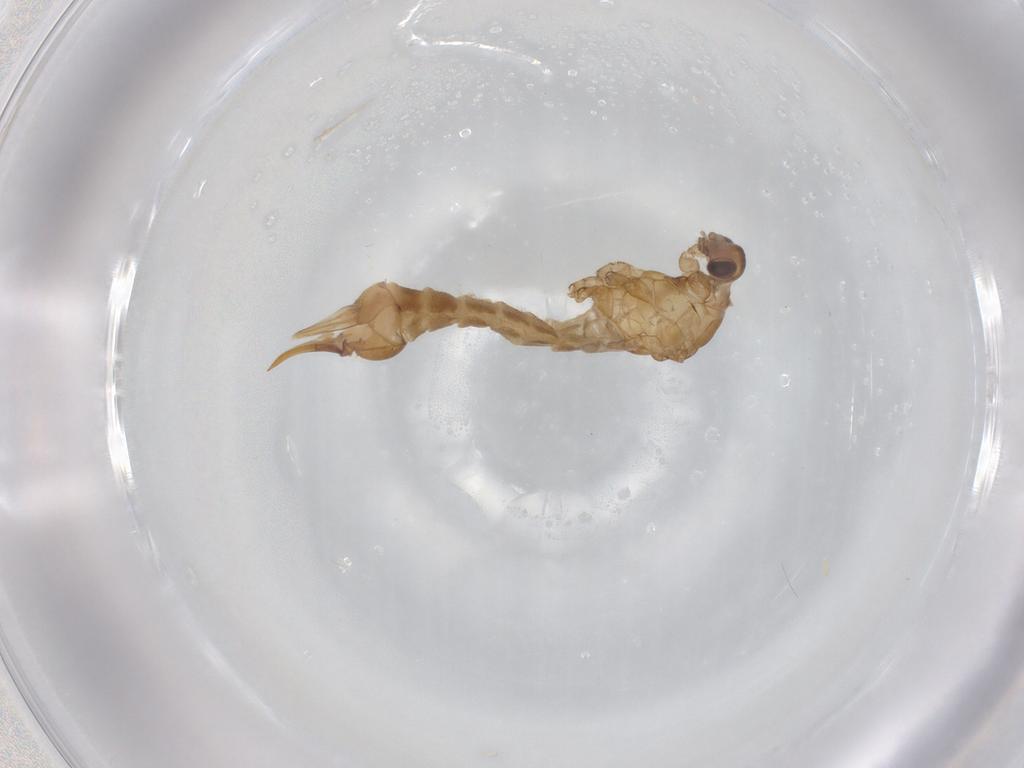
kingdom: Animalia
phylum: Arthropoda
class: Insecta
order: Diptera
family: Limoniidae
